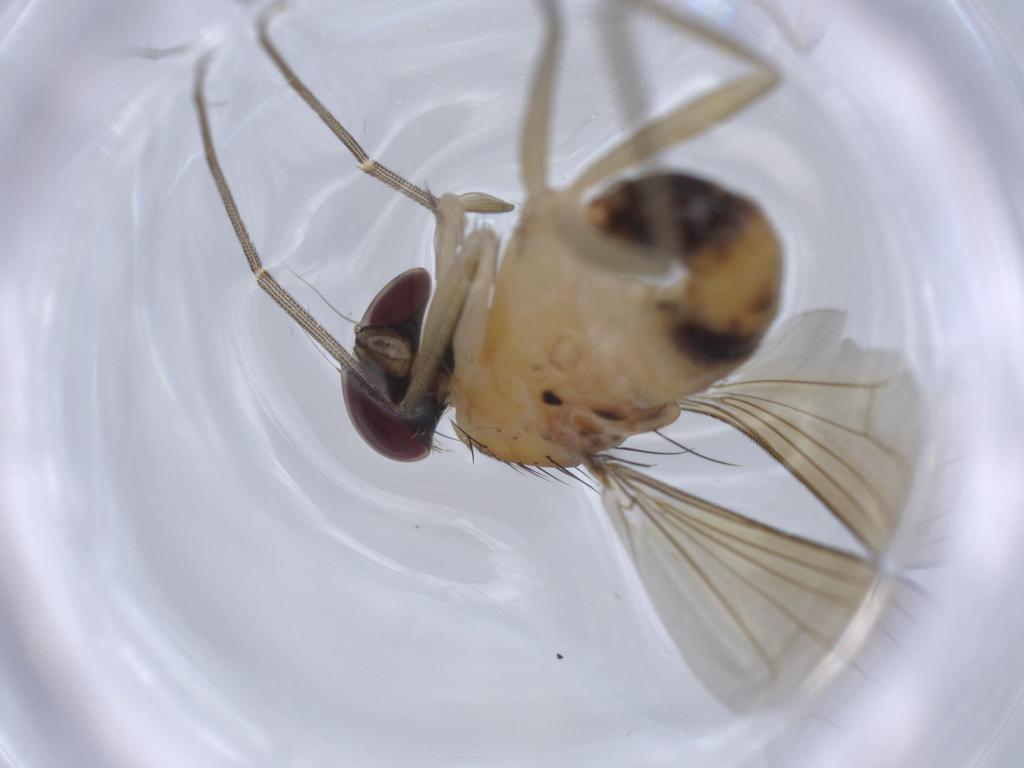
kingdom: Animalia
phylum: Arthropoda
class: Insecta
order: Diptera
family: Dolichopodidae
